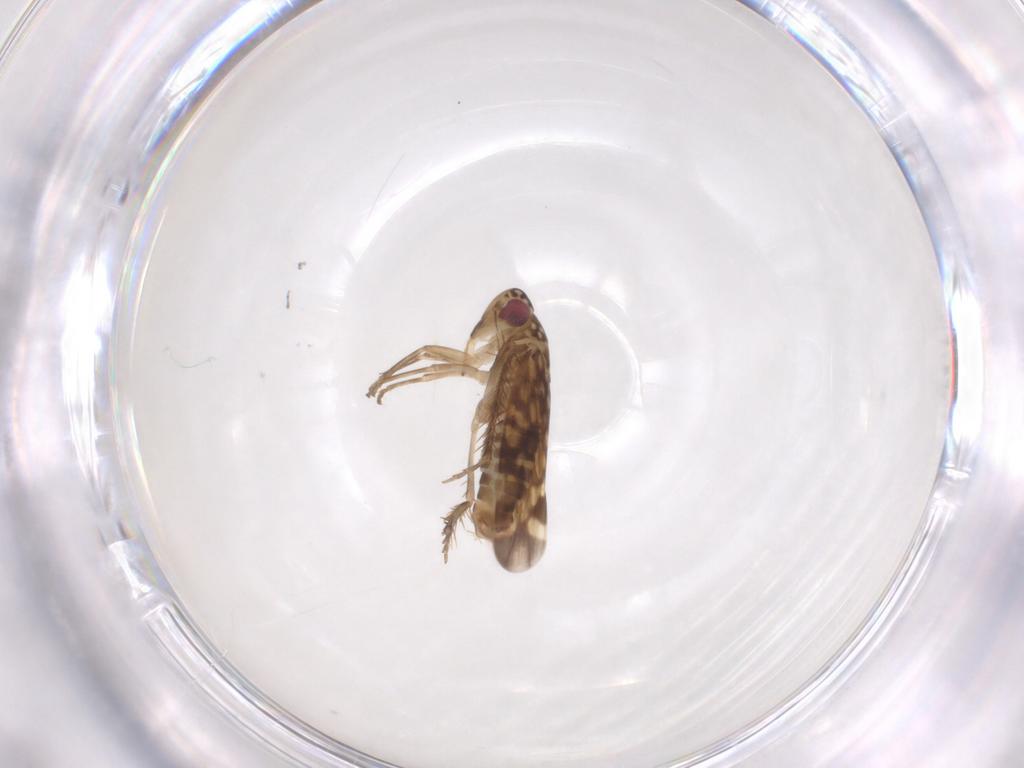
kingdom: Animalia
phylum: Arthropoda
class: Insecta
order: Hemiptera
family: Cicadellidae
